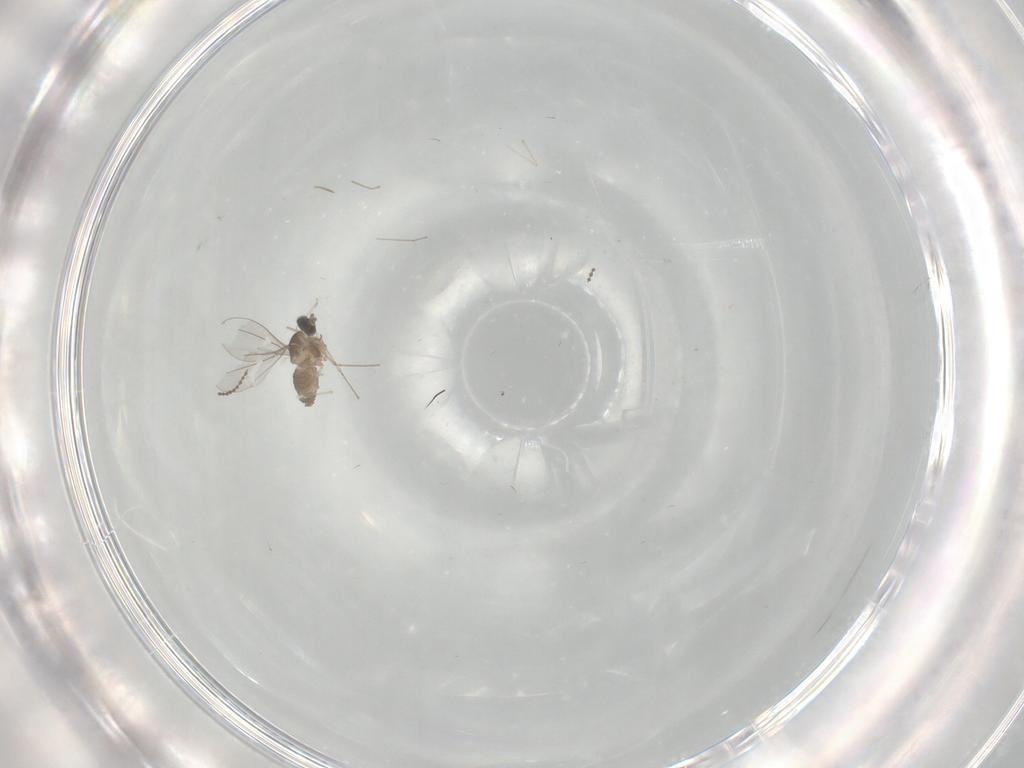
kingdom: Animalia
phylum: Arthropoda
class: Insecta
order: Diptera
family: Cecidomyiidae
